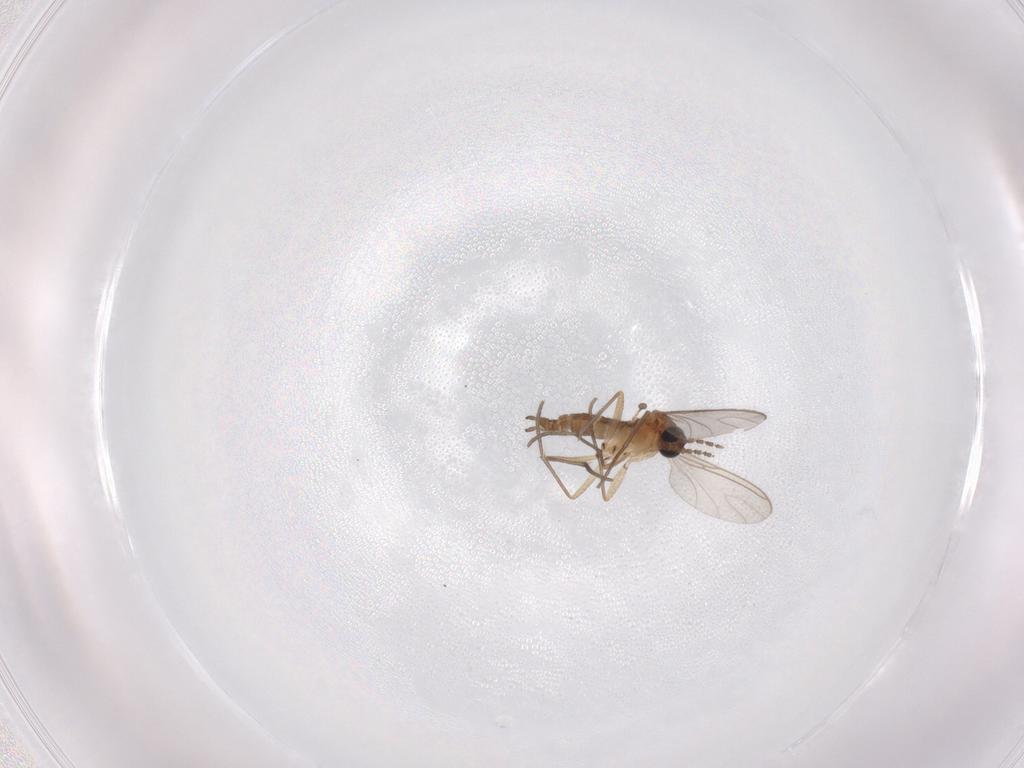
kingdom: Animalia
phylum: Arthropoda
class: Insecta
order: Diptera
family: Sciaridae
